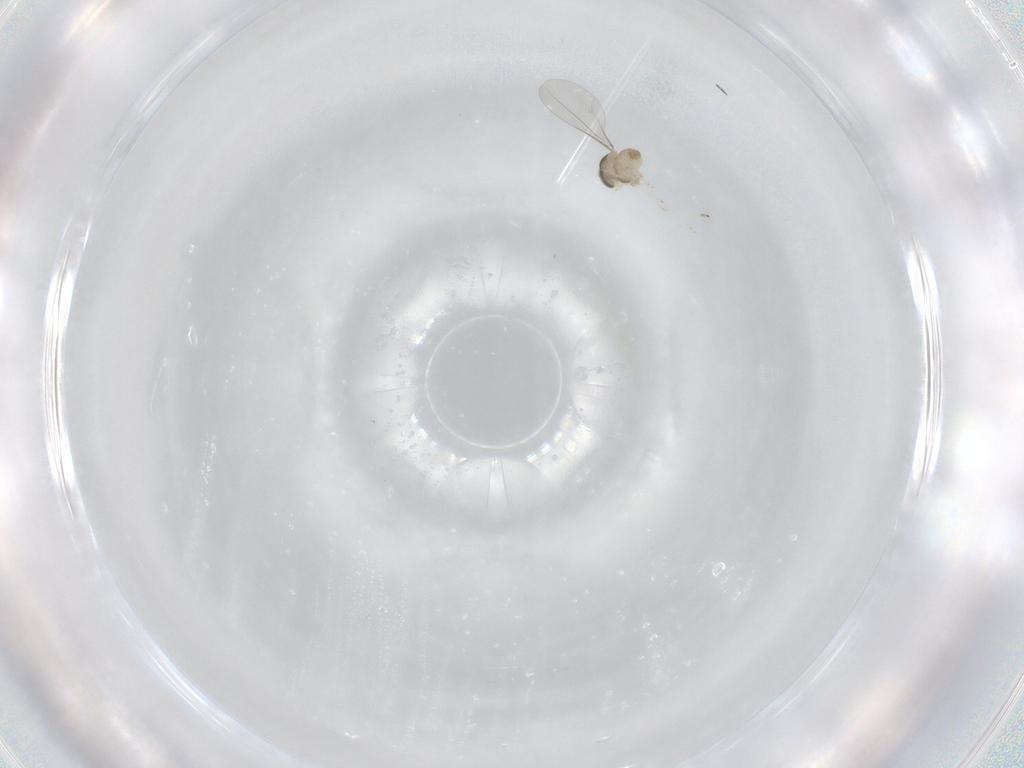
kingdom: Animalia
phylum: Arthropoda
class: Insecta
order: Diptera
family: Cecidomyiidae
